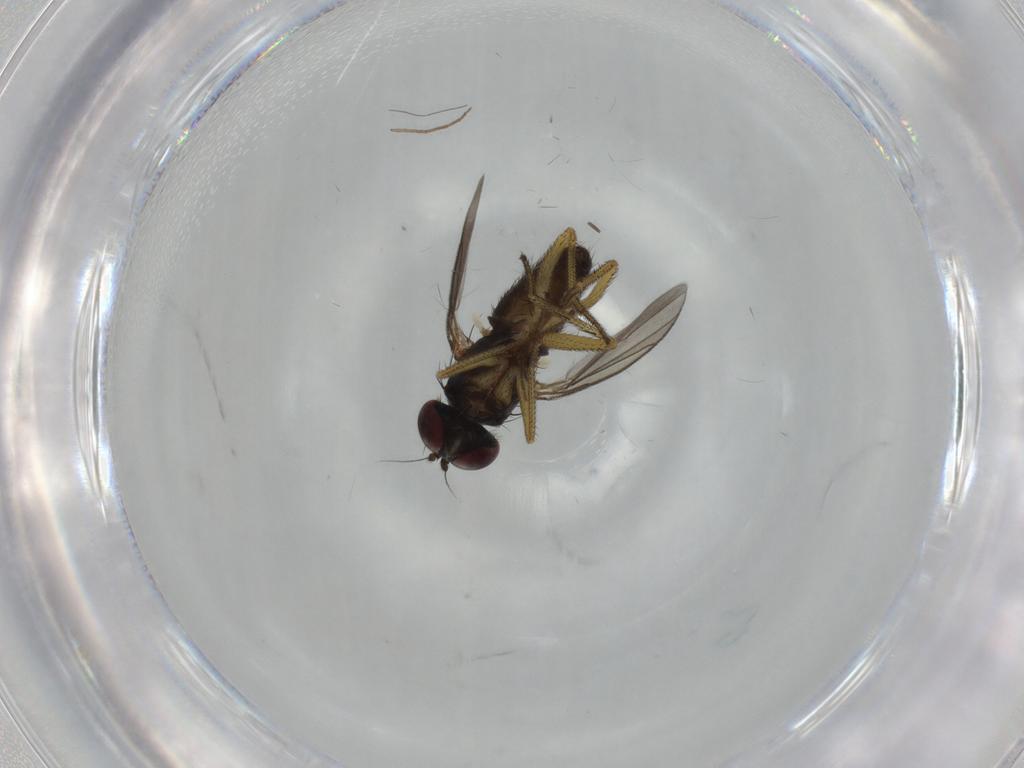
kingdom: Animalia
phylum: Arthropoda
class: Insecta
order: Diptera
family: Dolichopodidae
